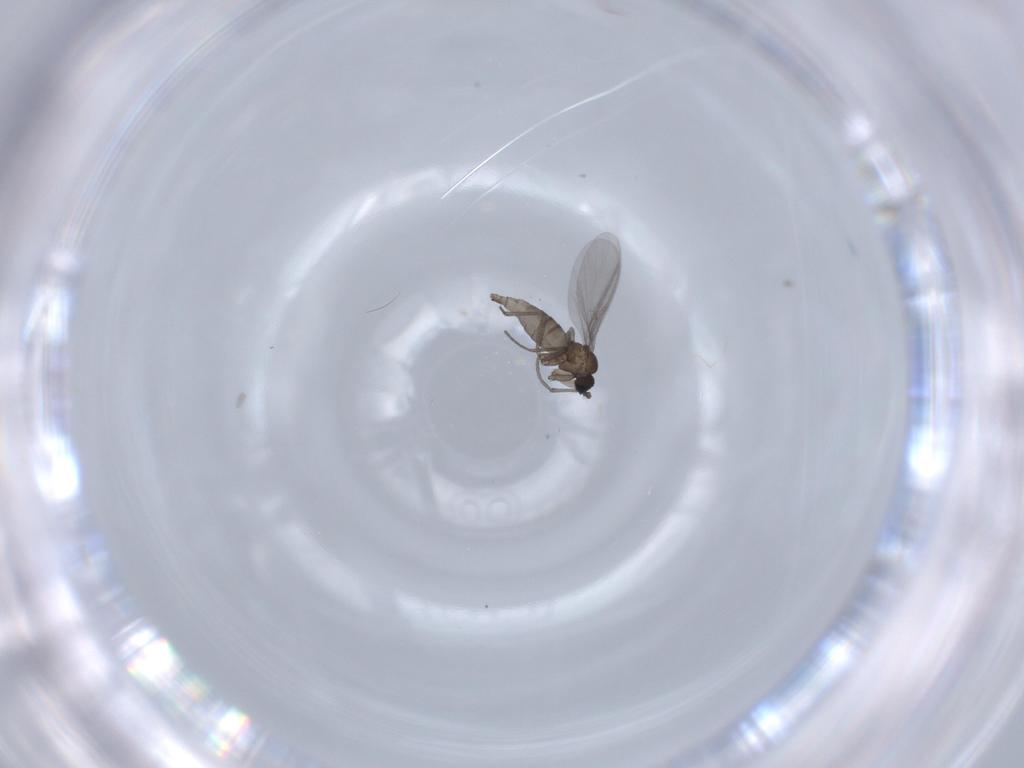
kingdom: Animalia
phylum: Arthropoda
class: Insecta
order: Diptera
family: Sciaridae
